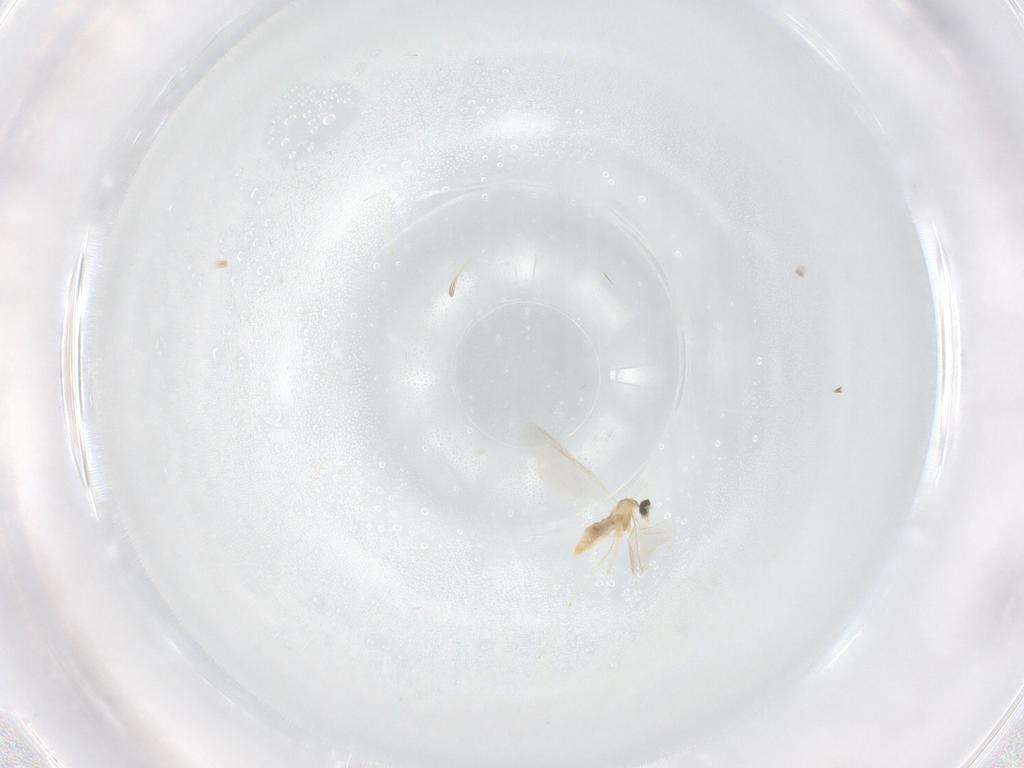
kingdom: Animalia
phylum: Arthropoda
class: Insecta
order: Diptera
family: Cecidomyiidae
